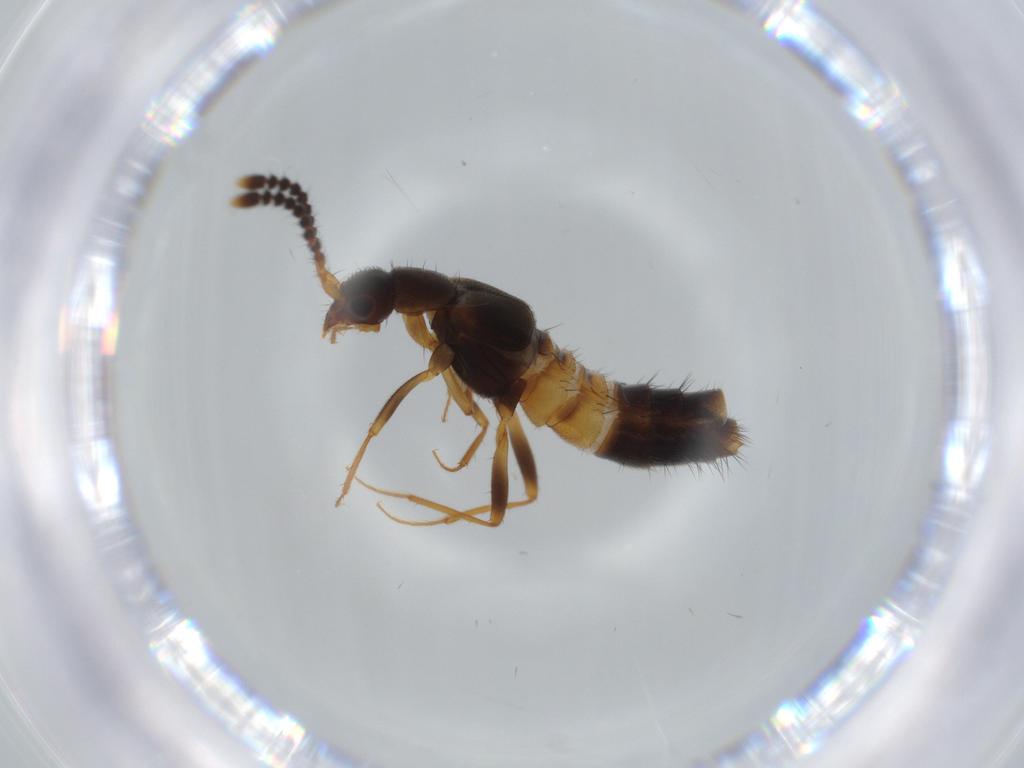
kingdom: Animalia
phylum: Arthropoda
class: Insecta
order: Coleoptera
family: Staphylinidae
